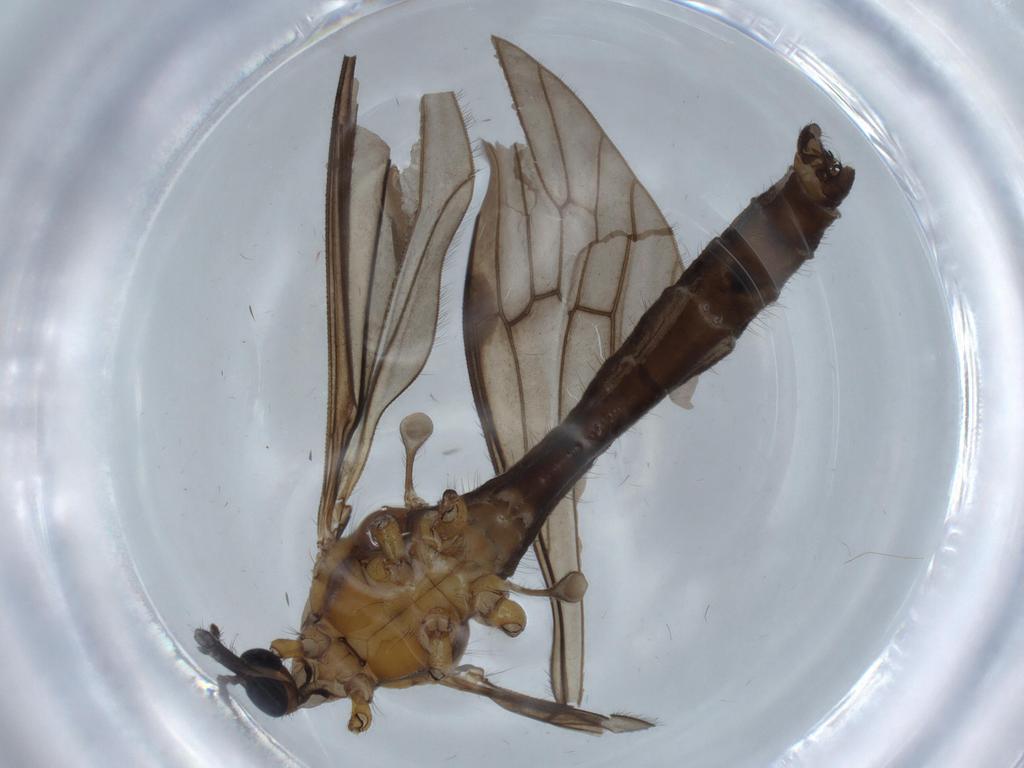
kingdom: Animalia
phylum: Arthropoda
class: Insecta
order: Diptera
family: Psychodidae
